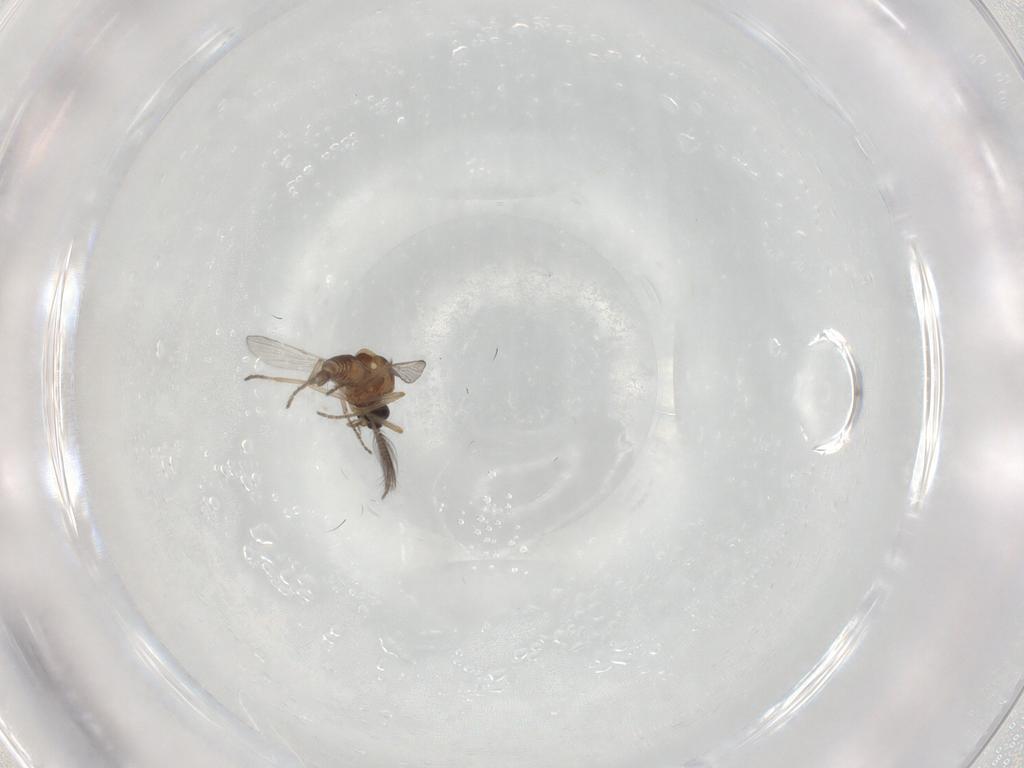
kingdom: Animalia
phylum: Arthropoda
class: Insecta
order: Diptera
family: Cecidomyiidae
